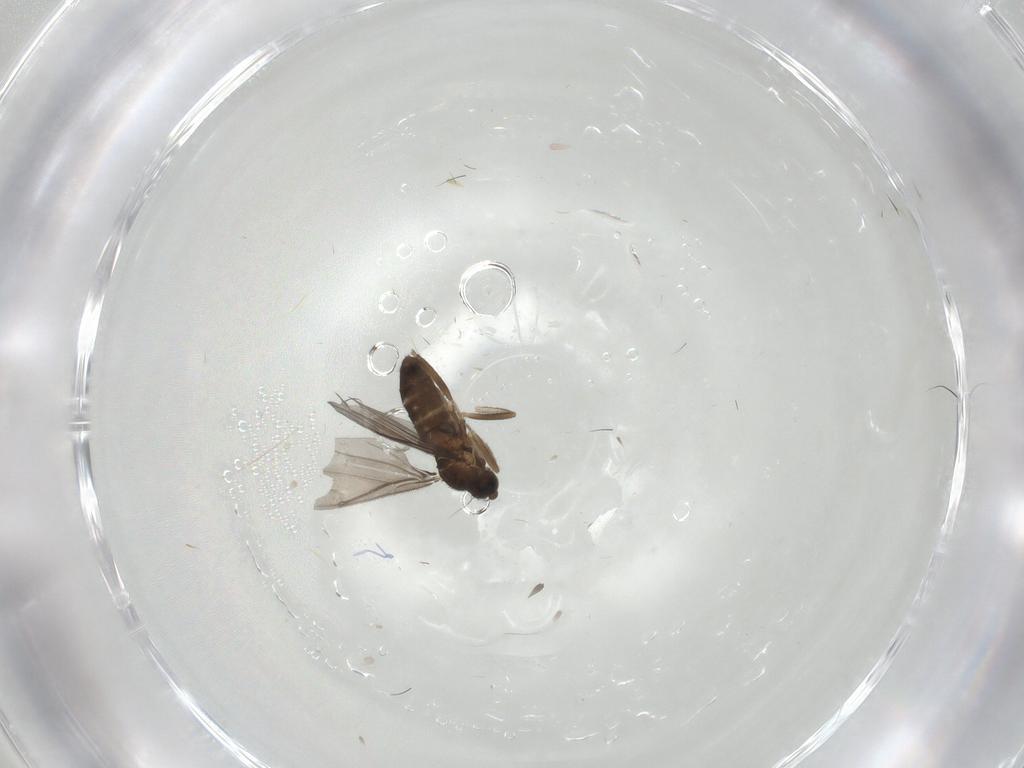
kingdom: Animalia
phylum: Arthropoda
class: Insecta
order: Diptera
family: Phoridae
